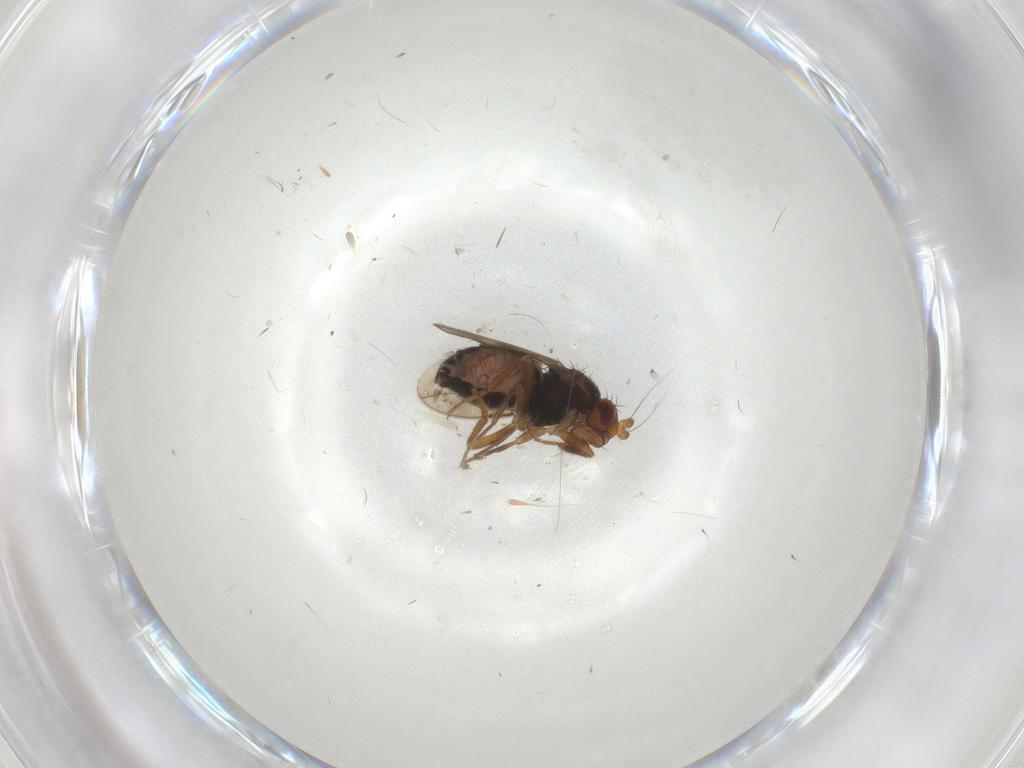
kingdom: Animalia
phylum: Arthropoda
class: Insecta
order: Diptera
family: Sphaeroceridae
